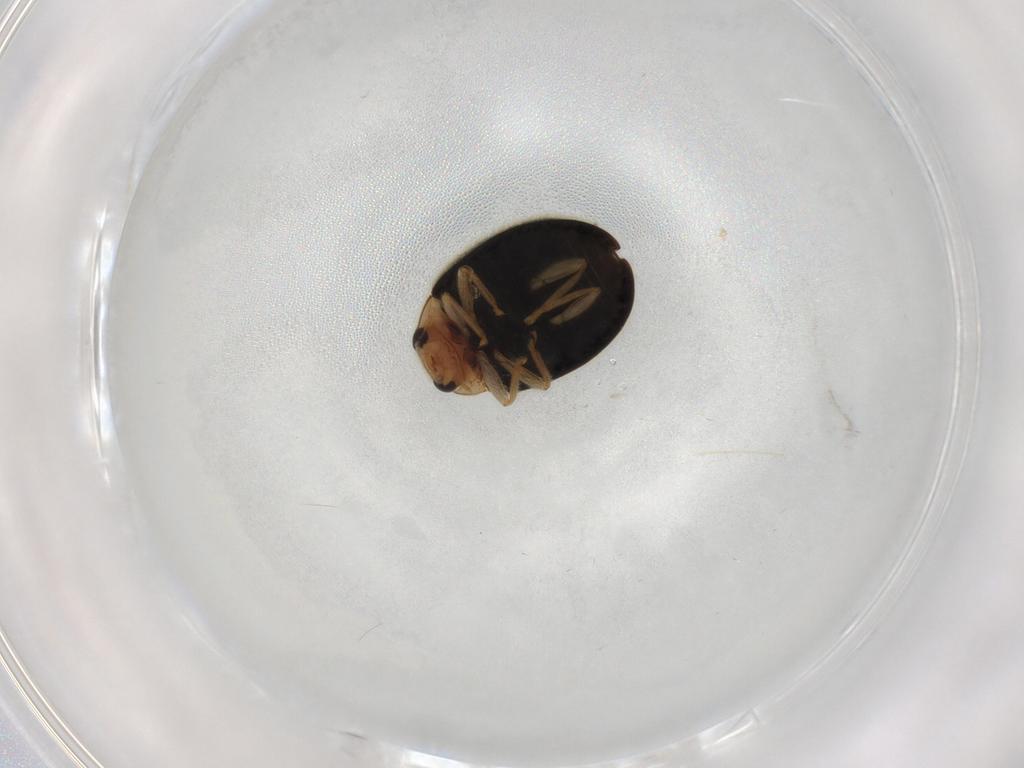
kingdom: Animalia
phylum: Arthropoda
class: Insecta
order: Coleoptera
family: Coccinellidae
